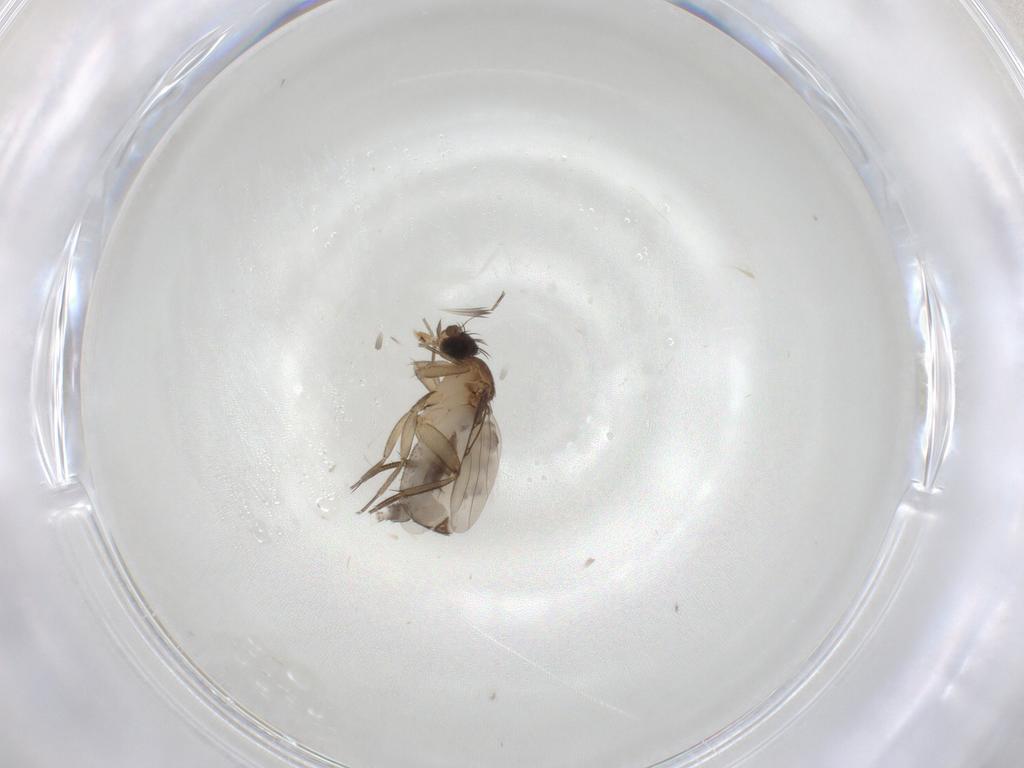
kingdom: Animalia
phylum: Arthropoda
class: Insecta
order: Diptera
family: Phoridae
